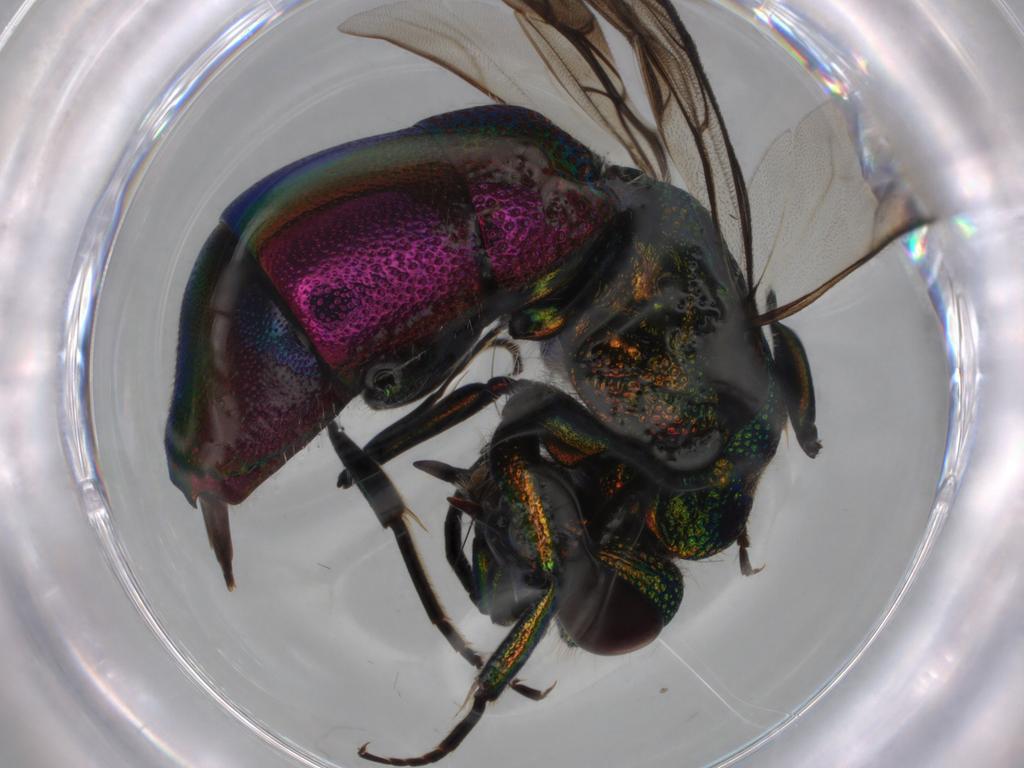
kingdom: Animalia
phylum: Arthropoda
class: Insecta
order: Hymenoptera
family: Chrysididae
